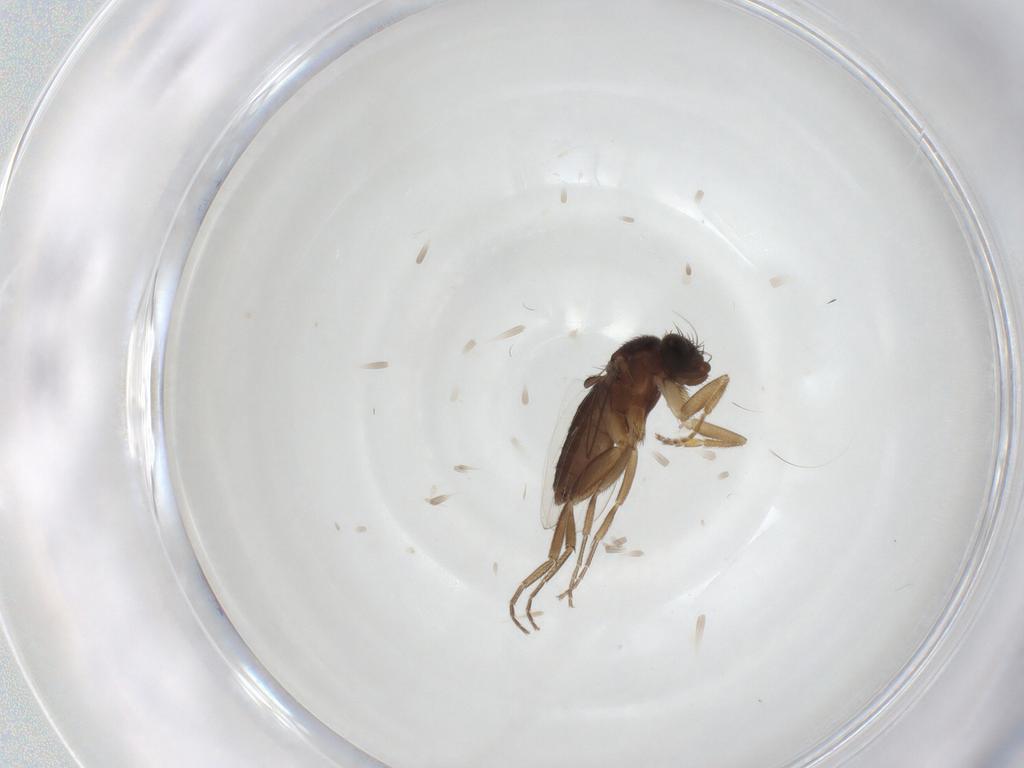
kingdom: Animalia
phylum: Arthropoda
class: Insecta
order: Diptera
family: Phoridae
